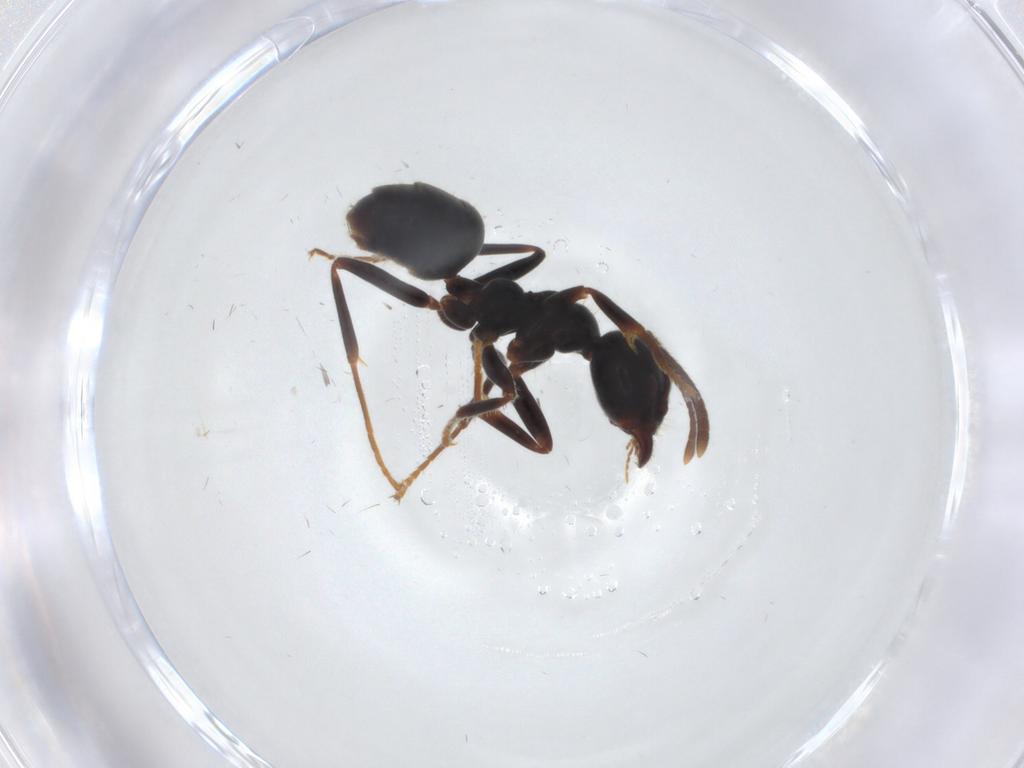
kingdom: Animalia
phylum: Arthropoda
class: Insecta
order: Hymenoptera
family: Formicidae
